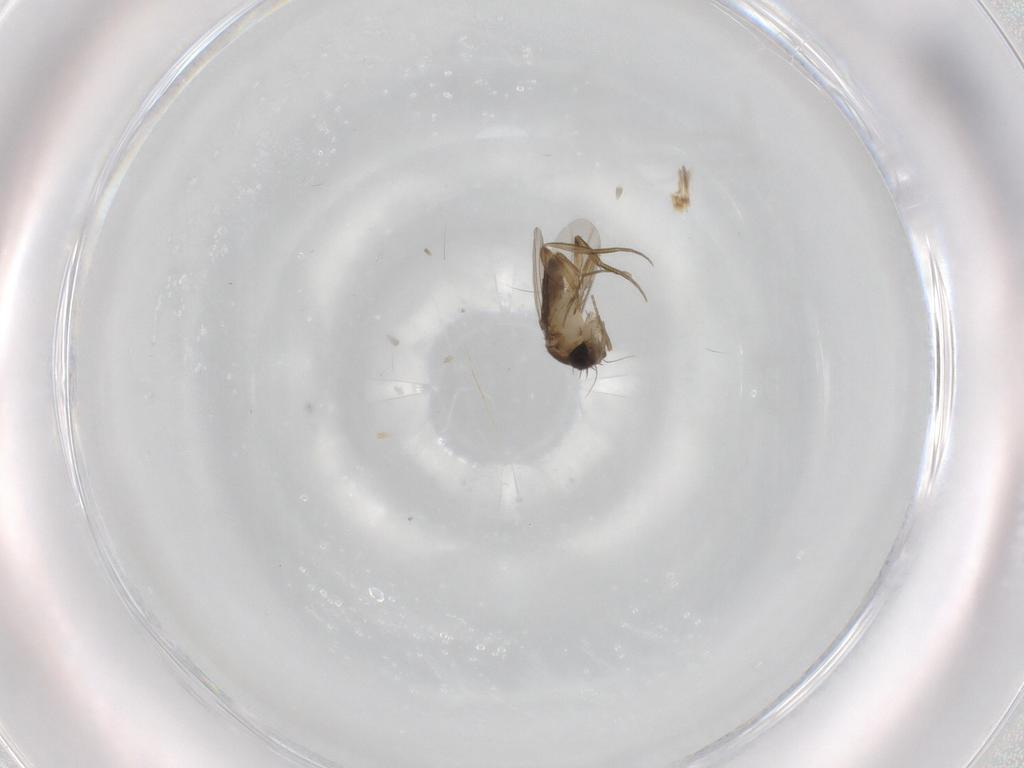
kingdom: Animalia
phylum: Arthropoda
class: Insecta
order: Diptera
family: Phoridae
